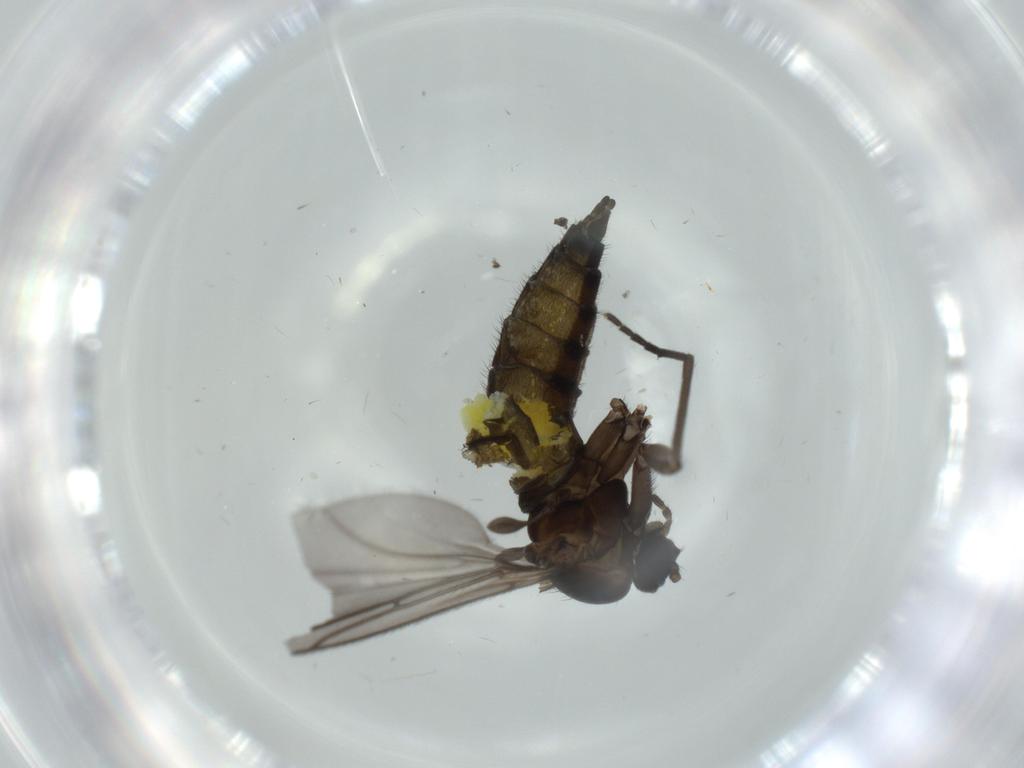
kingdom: Animalia
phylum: Arthropoda
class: Insecta
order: Diptera
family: Sciaridae
